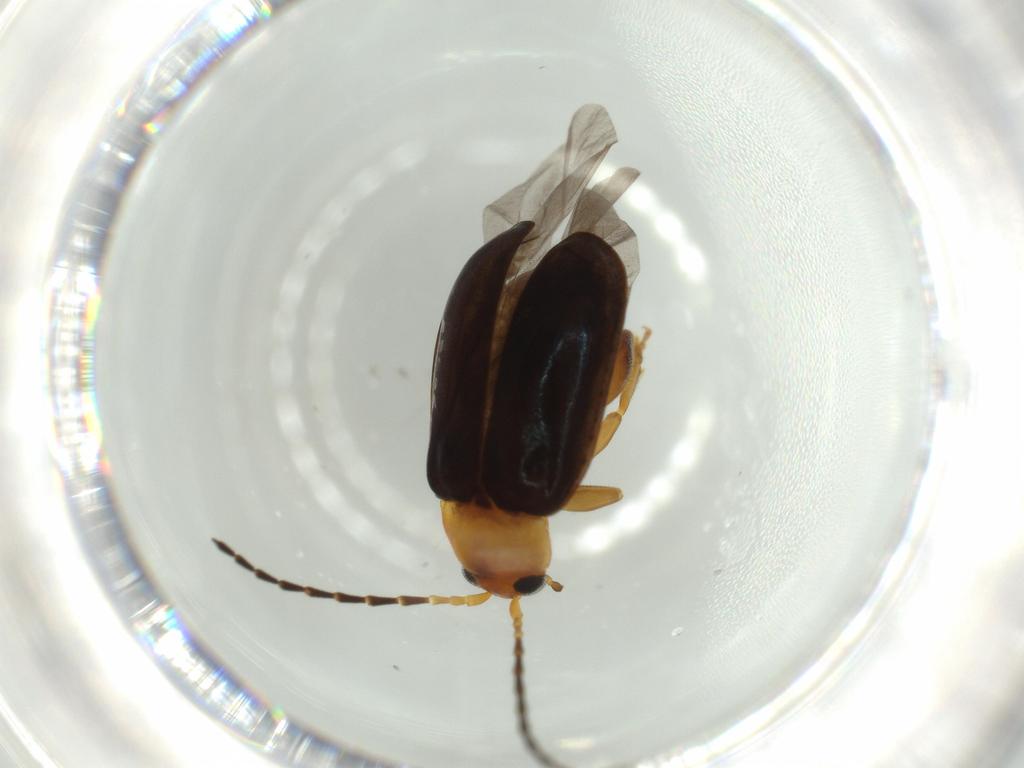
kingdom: Animalia
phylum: Arthropoda
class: Insecta
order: Coleoptera
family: Chrysomelidae
